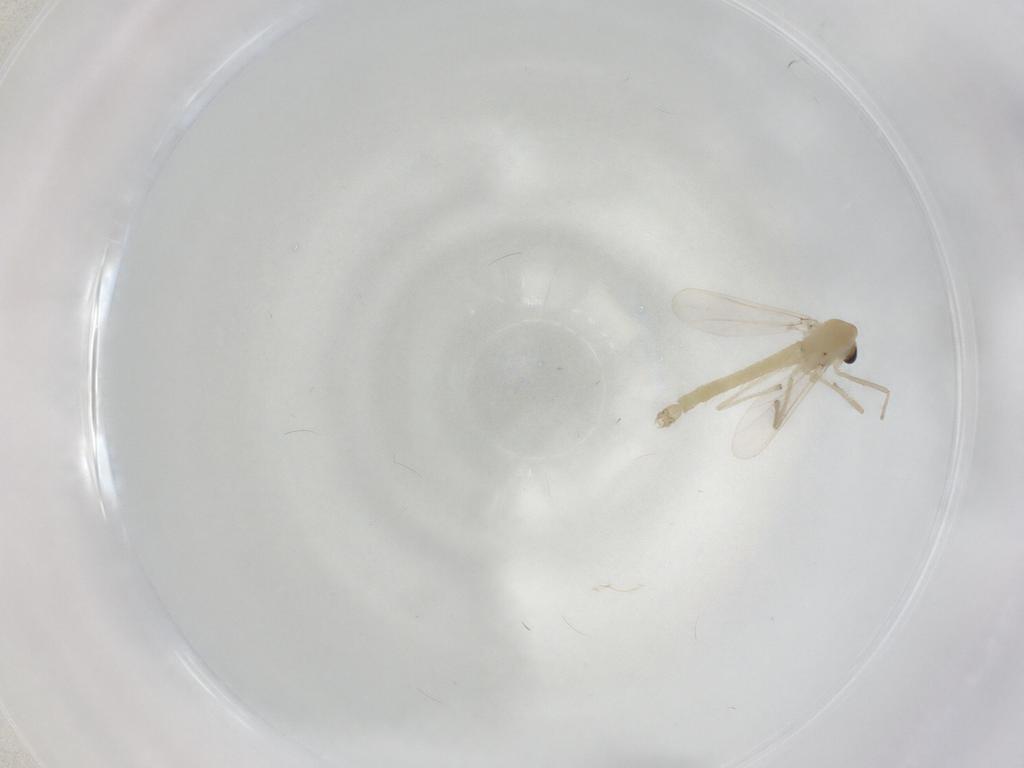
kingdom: Animalia
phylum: Arthropoda
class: Insecta
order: Diptera
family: Chironomidae
